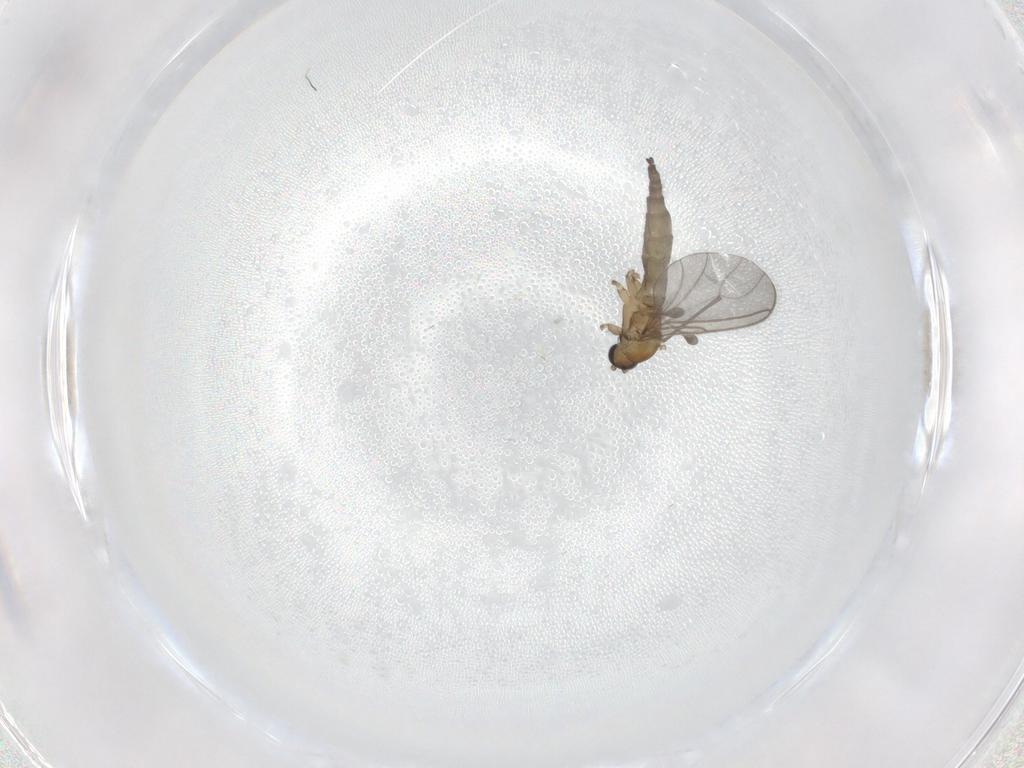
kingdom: Animalia
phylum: Arthropoda
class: Insecta
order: Diptera
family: Sciaridae
